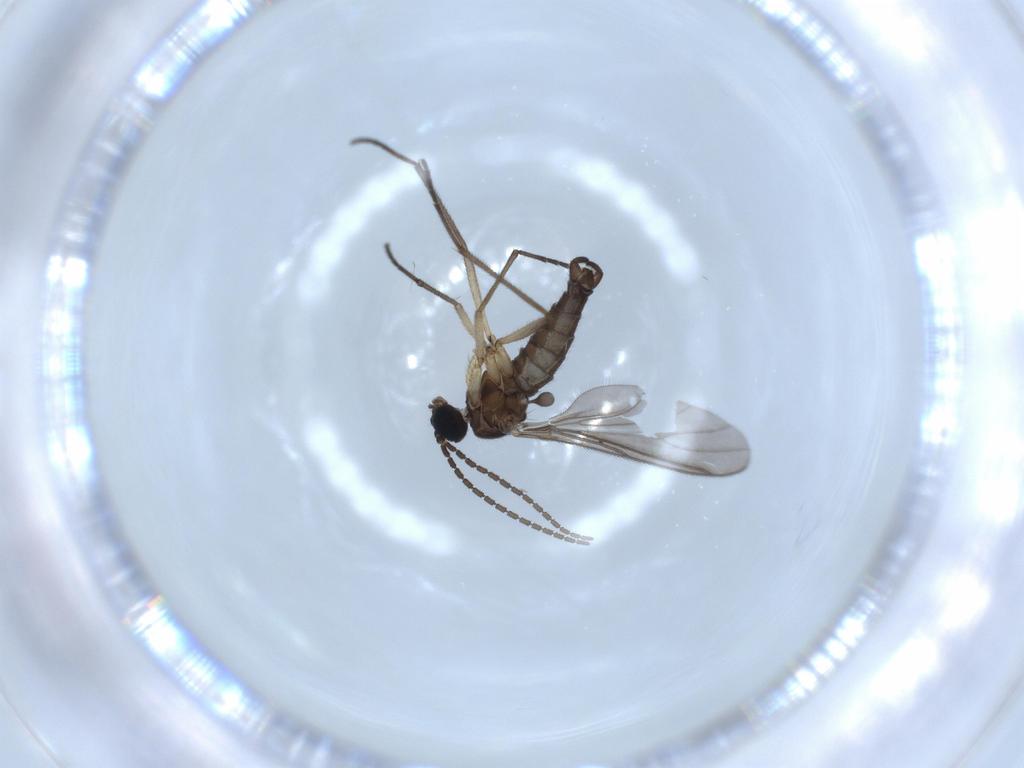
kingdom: Animalia
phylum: Arthropoda
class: Insecta
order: Diptera
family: Cecidomyiidae
